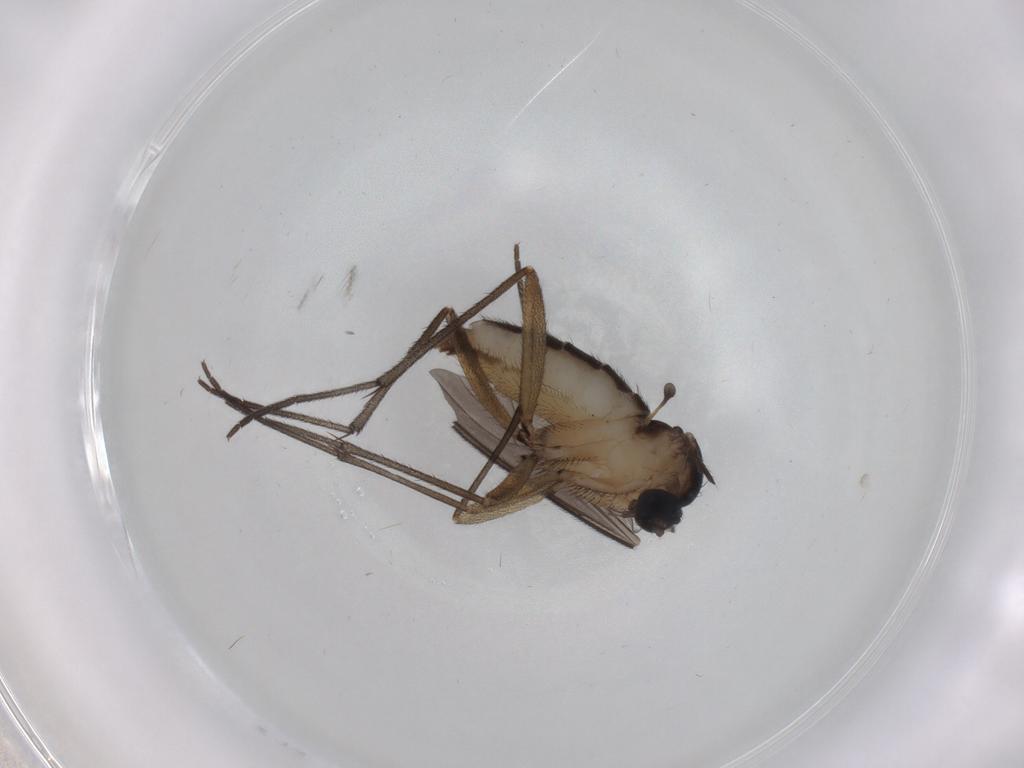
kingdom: Animalia
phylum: Arthropoda
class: Insecta
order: Diptera
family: Sciaridae
